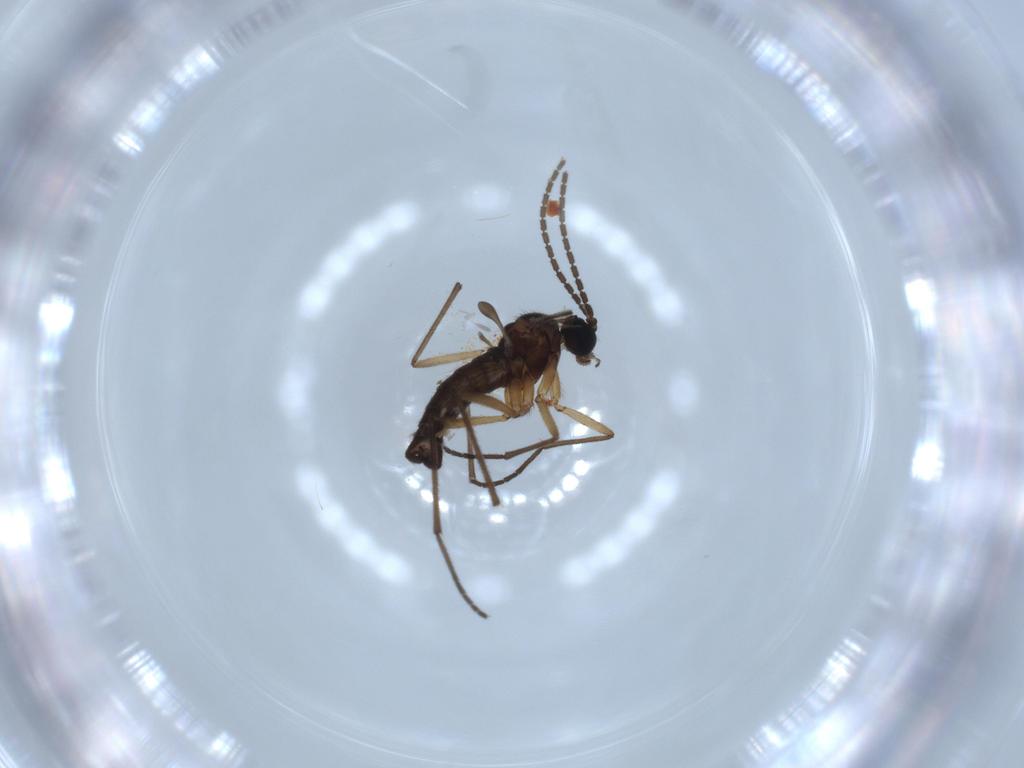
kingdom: Animalia
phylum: Arthropoda
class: Insecta
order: Diptera
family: Sciaridae
